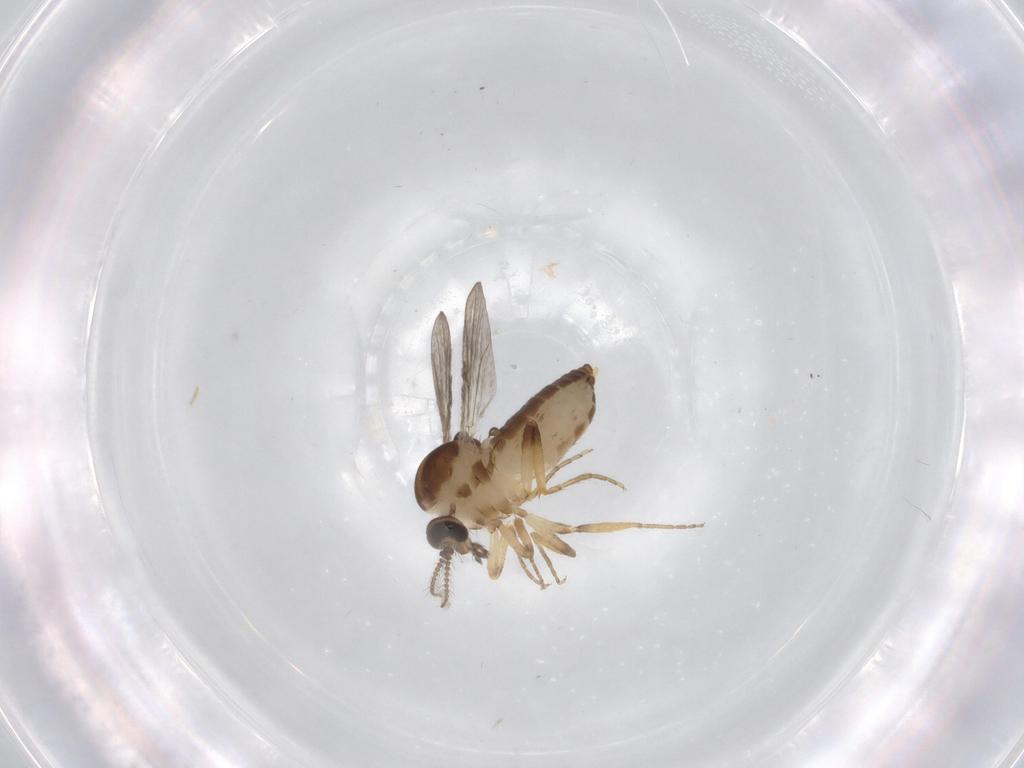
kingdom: Animalia
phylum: Arthropoda
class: Insecta
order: Diptera
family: Ceratopogonidae
